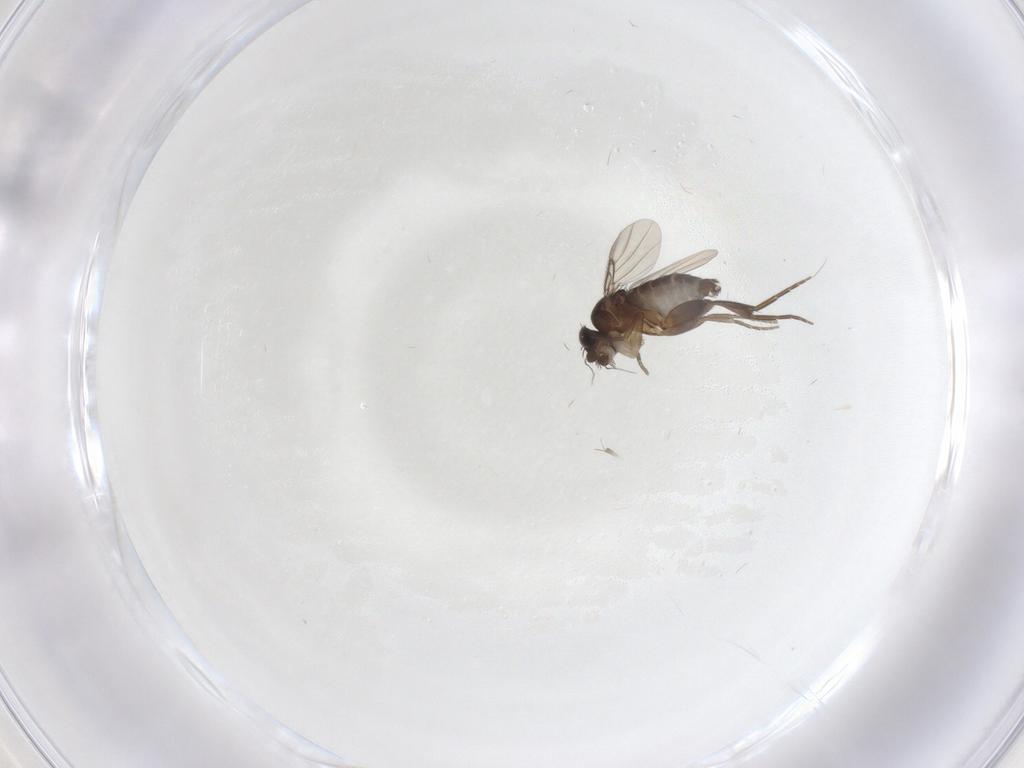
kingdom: Animalia
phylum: Arthropoda
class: Insecta
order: Diptera
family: Phoridae
